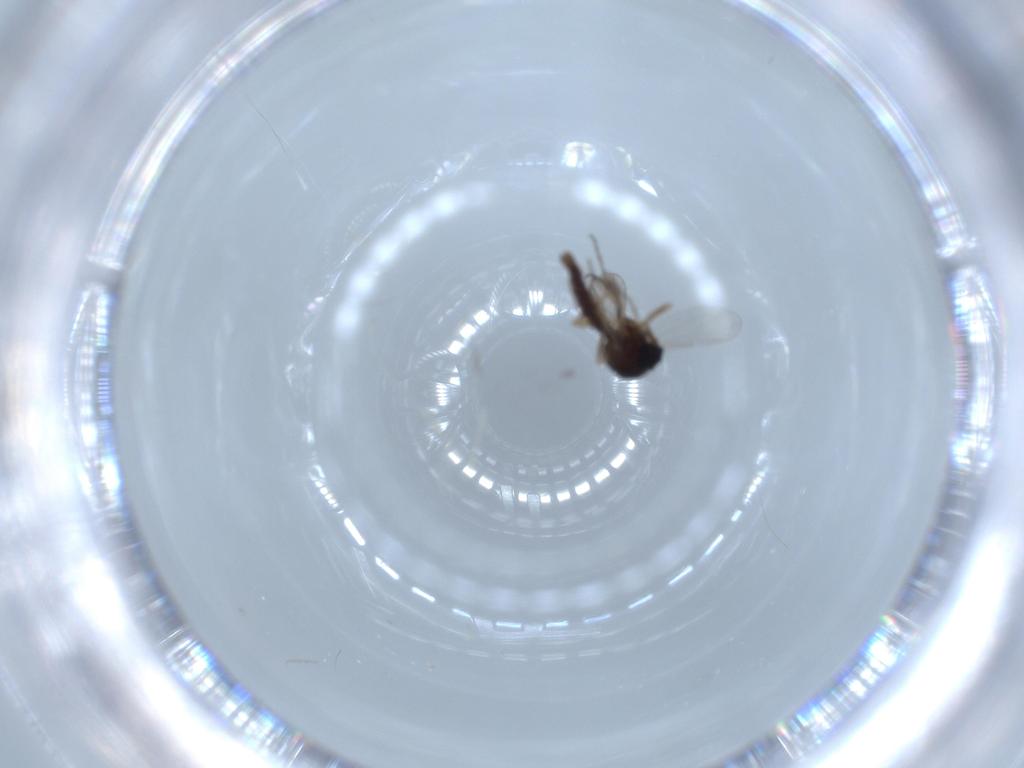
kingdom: Animalia
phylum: Arthropoda
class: Insecta
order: Diptera
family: Ceratopogonidae
